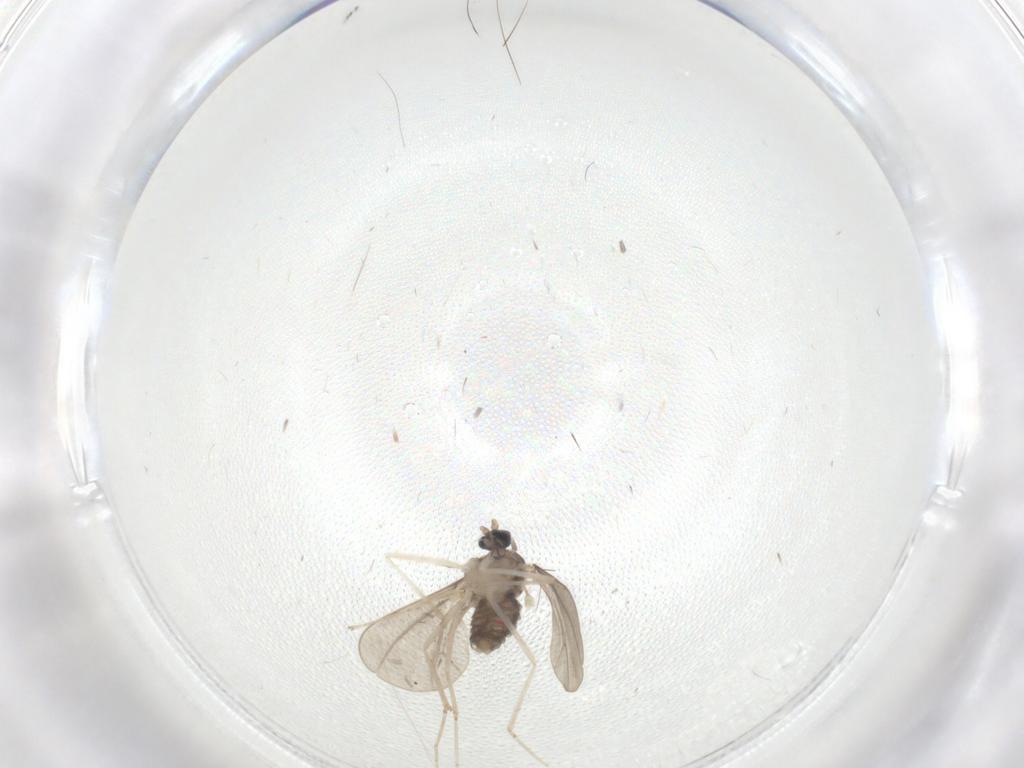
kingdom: Animalia
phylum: Arthropoda
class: Insecta
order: Diptera
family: Cecidomyiidae
